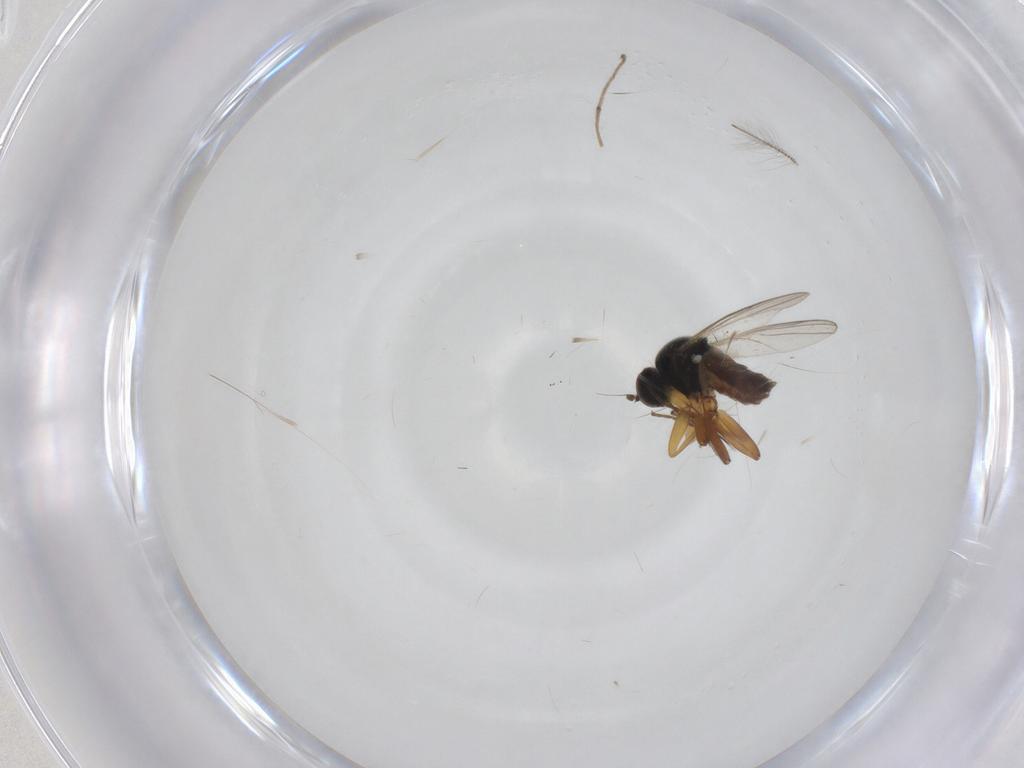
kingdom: Animalia
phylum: Arthropoda
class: Insecta
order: Diptera
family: Hybotidae
